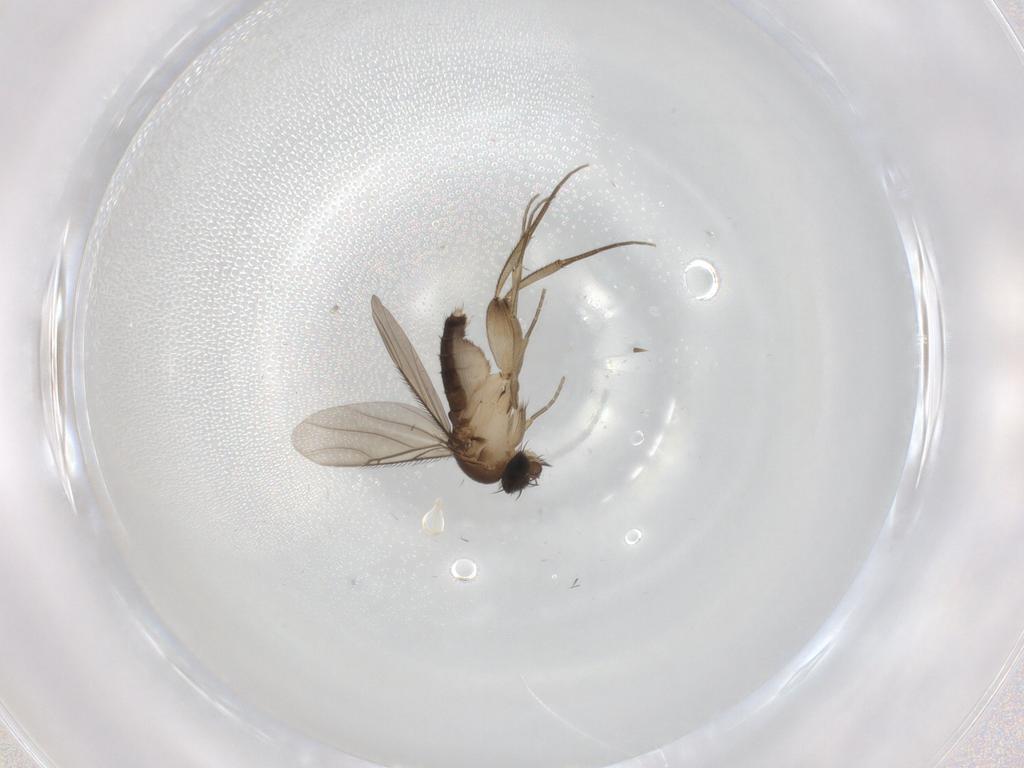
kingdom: Animalia
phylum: Arthropoda
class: Insecta
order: Diptera
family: Phoridae
